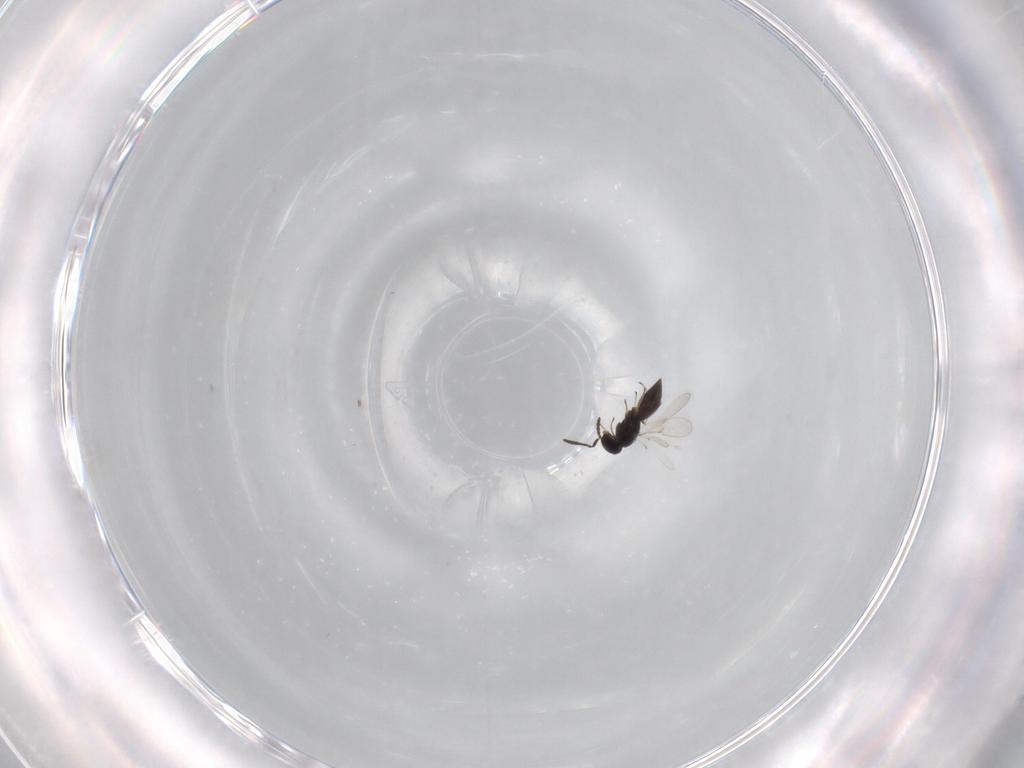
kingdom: Animalia
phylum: Arthropoda
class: Insecta
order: Hymenoptera
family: Scelionidae
